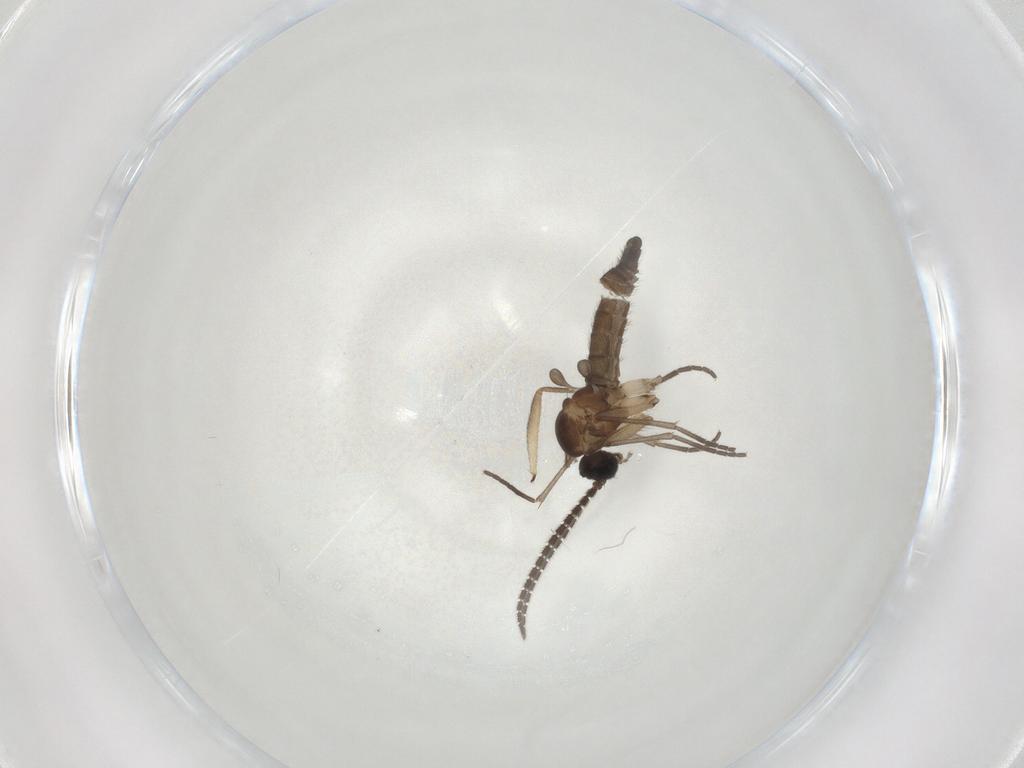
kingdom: Animalia
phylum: Arthropoda
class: Insecta
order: Diptera
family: Sciaridae
